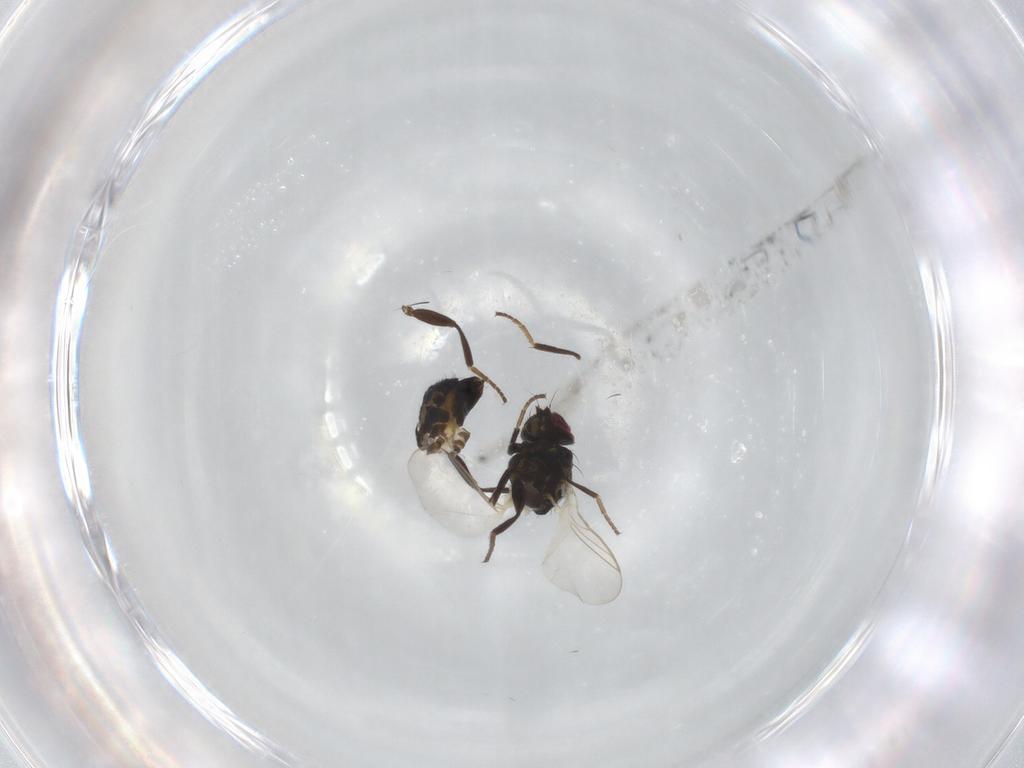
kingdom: Animalia
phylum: Arthropoda
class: Insecta
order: Diptera
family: Agromyzidae
